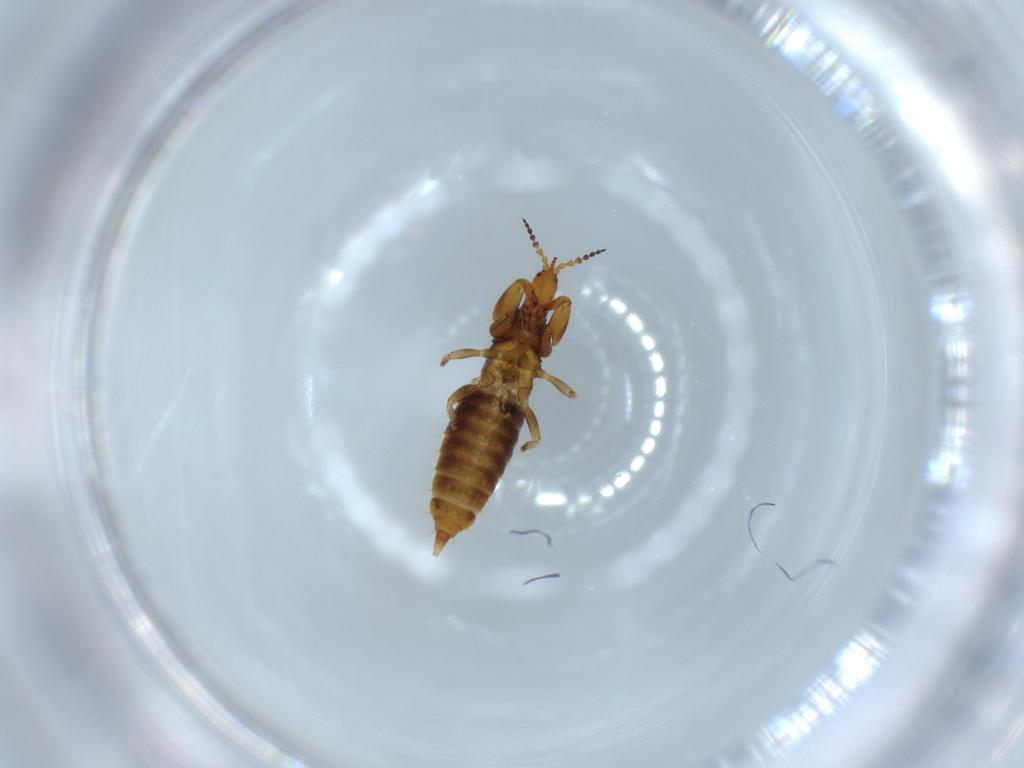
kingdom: Animalia
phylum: Arthropoda
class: Insecta
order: Thysanoptera
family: Phlaeothripidae
